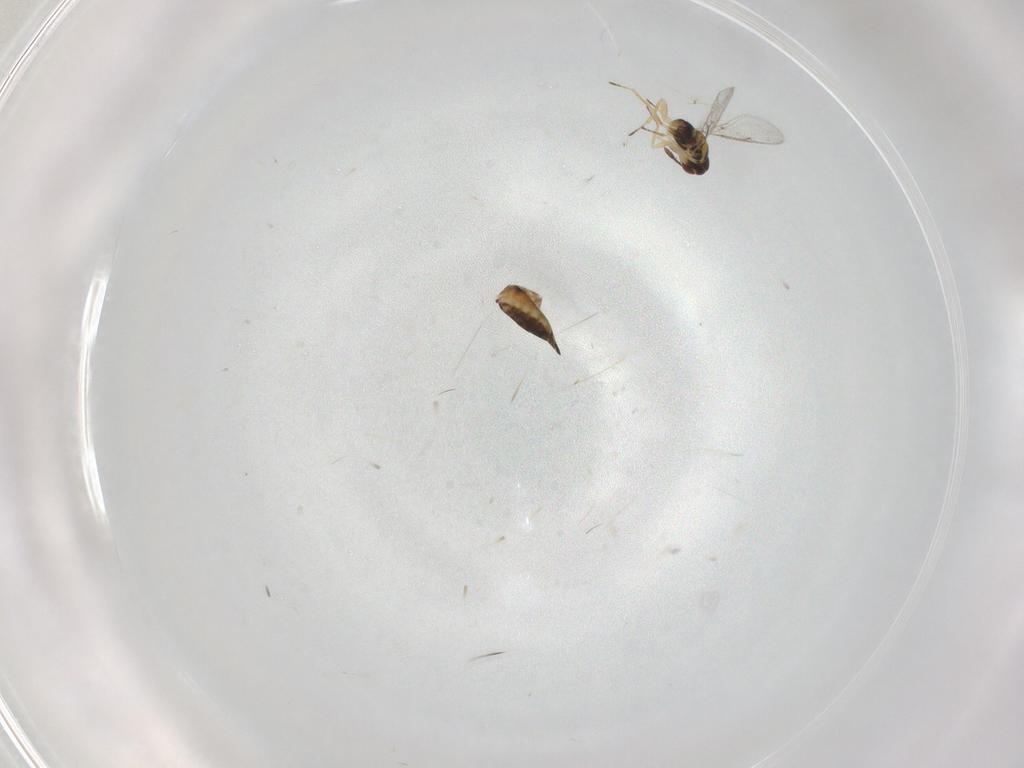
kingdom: Animalia
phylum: Arthropoda
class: Insecta
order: Hymenoptera
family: Eulophidae
